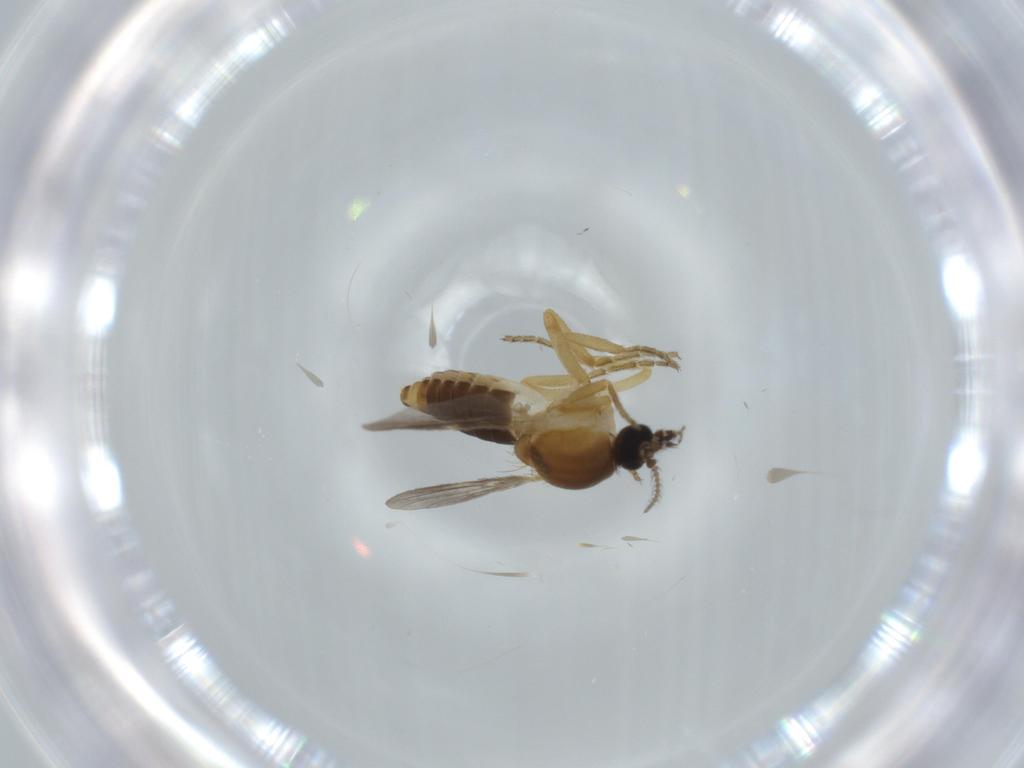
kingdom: Animalia
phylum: Arthropoda
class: Insecta
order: Diptera
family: Ceratopogonidae
